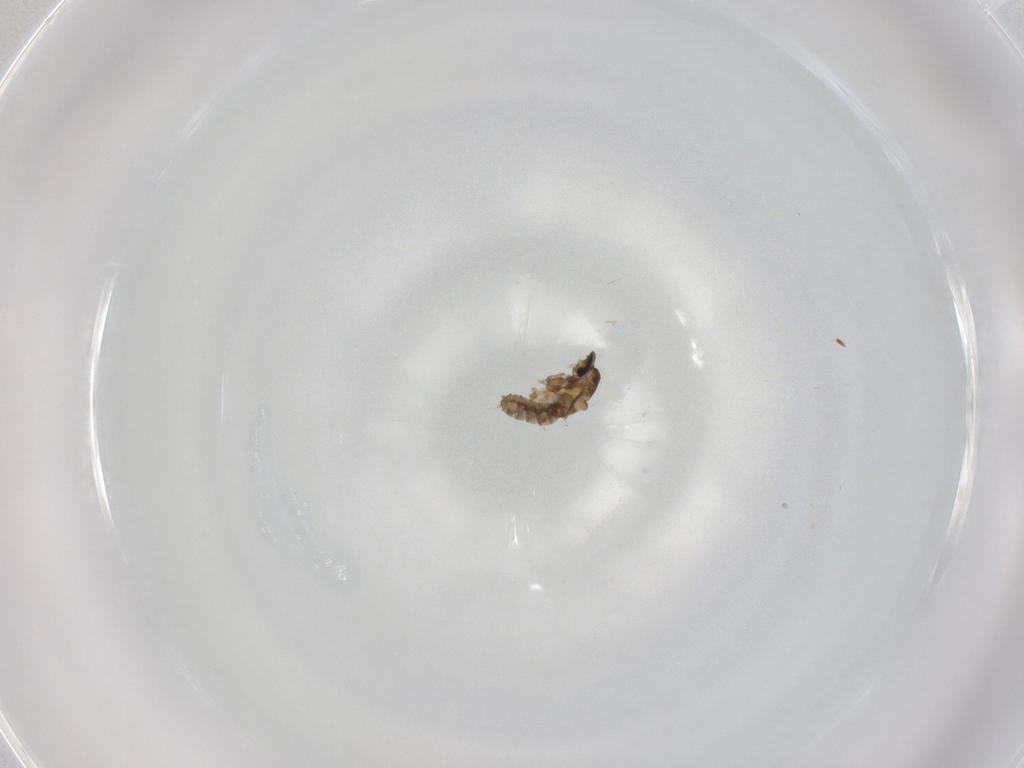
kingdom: Animalia
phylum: Arthropoda
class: Insecta
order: Diptera
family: Cecidomyiidae
